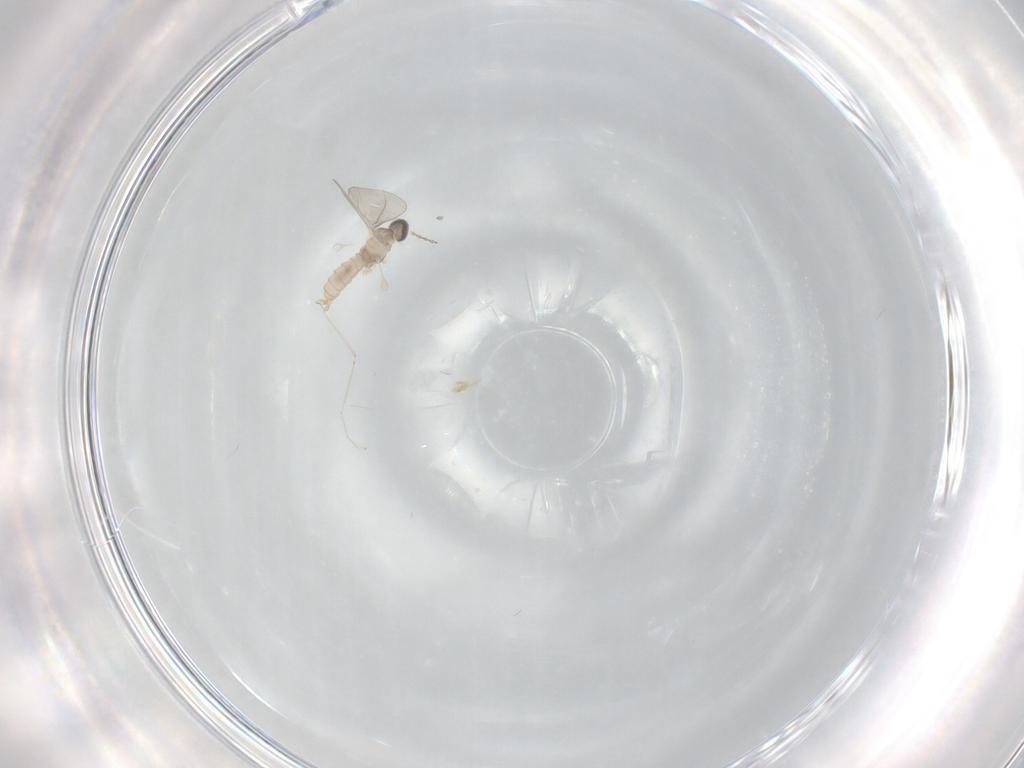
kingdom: Animalia
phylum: Arthropoda
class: Insecta
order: Diptera
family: Cecidomyiidae
